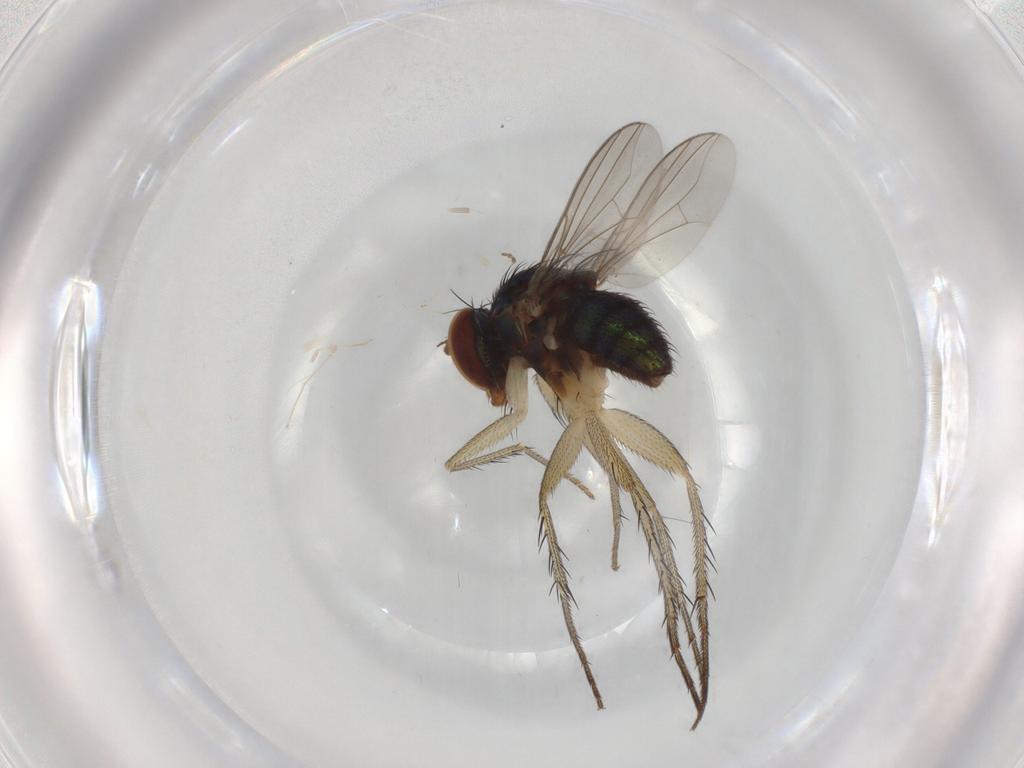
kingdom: Animalia
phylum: Arthropoda
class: Insecta
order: Diptera
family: Dolichopodidae
